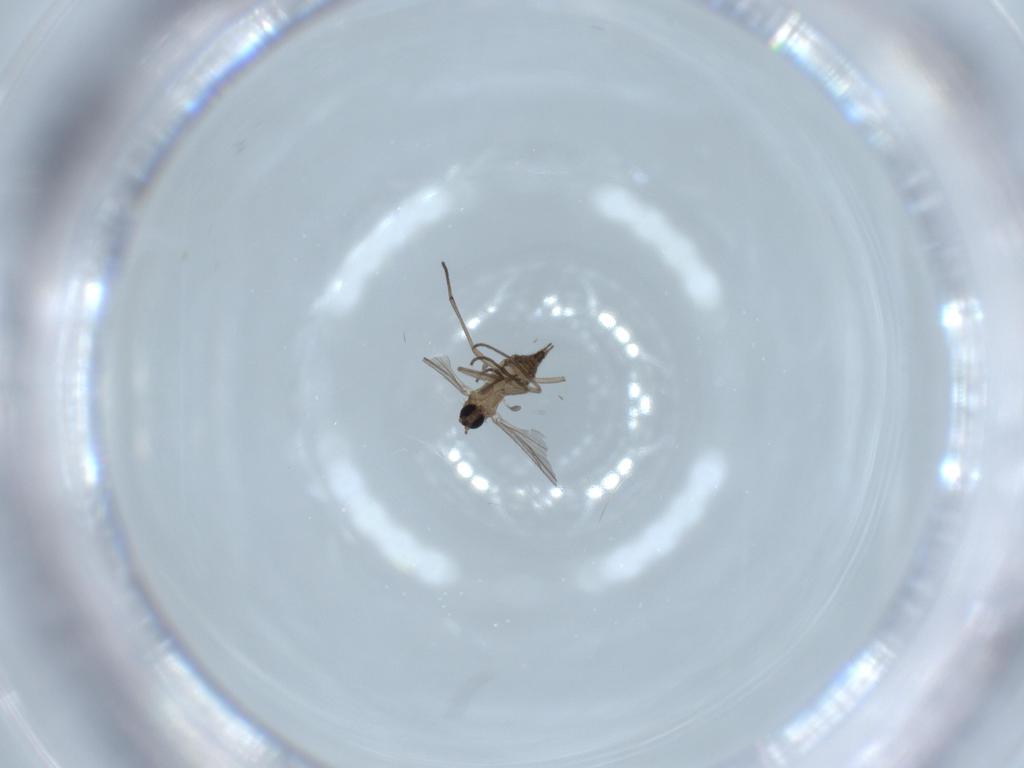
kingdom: Animalia
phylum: Arthropoda
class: Insecta
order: Diptera
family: Sciaridae
